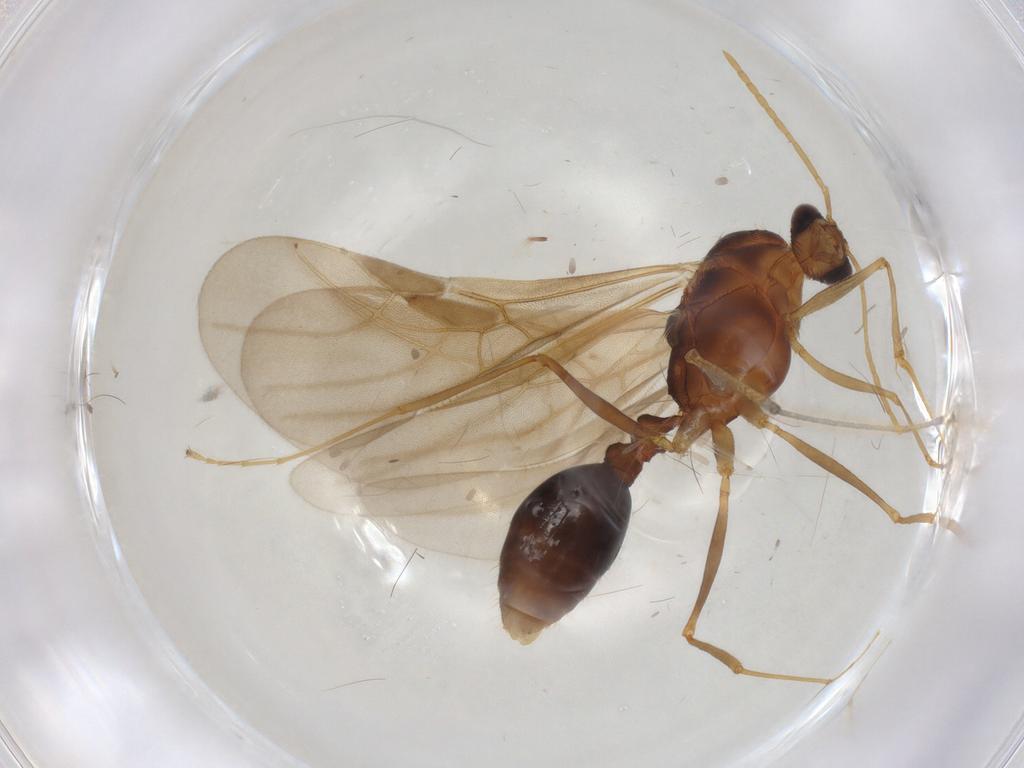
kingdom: Animalia
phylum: Arthropoda
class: Insecta
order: Hymenoptera
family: Formicidae
